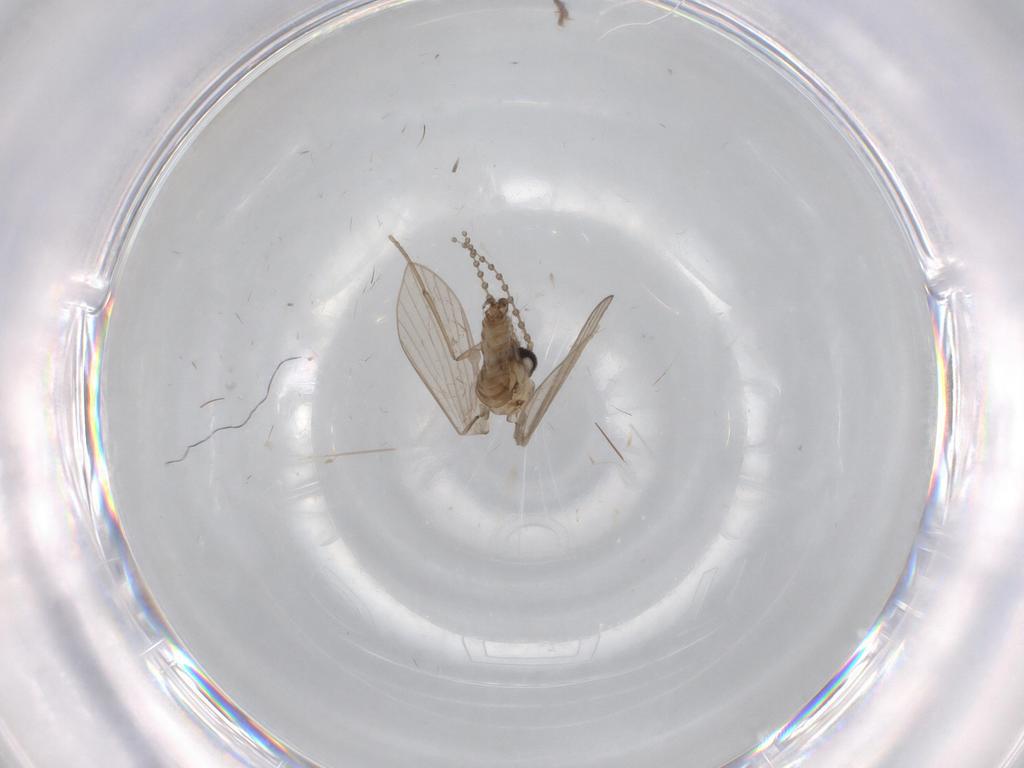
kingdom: Animalia
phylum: Arthropoda
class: Insecta
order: Diptera
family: Psychodidae
